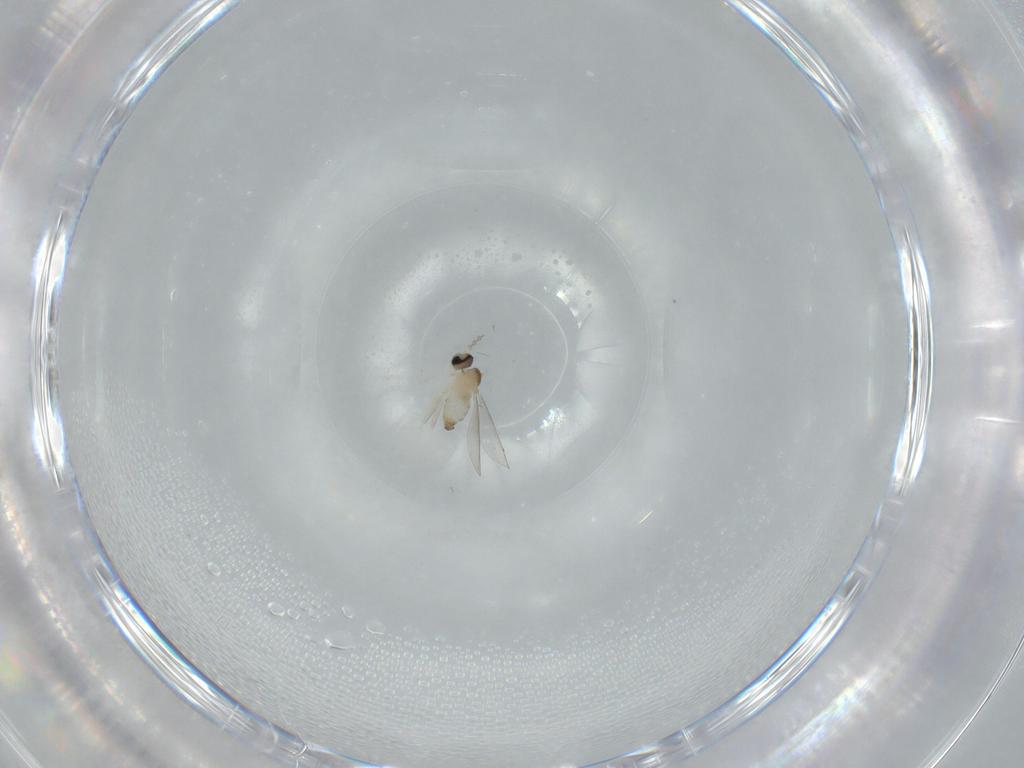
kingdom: Animalia
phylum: Arthropoda
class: Insecta
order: Diptera
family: Cecidomyiidae
